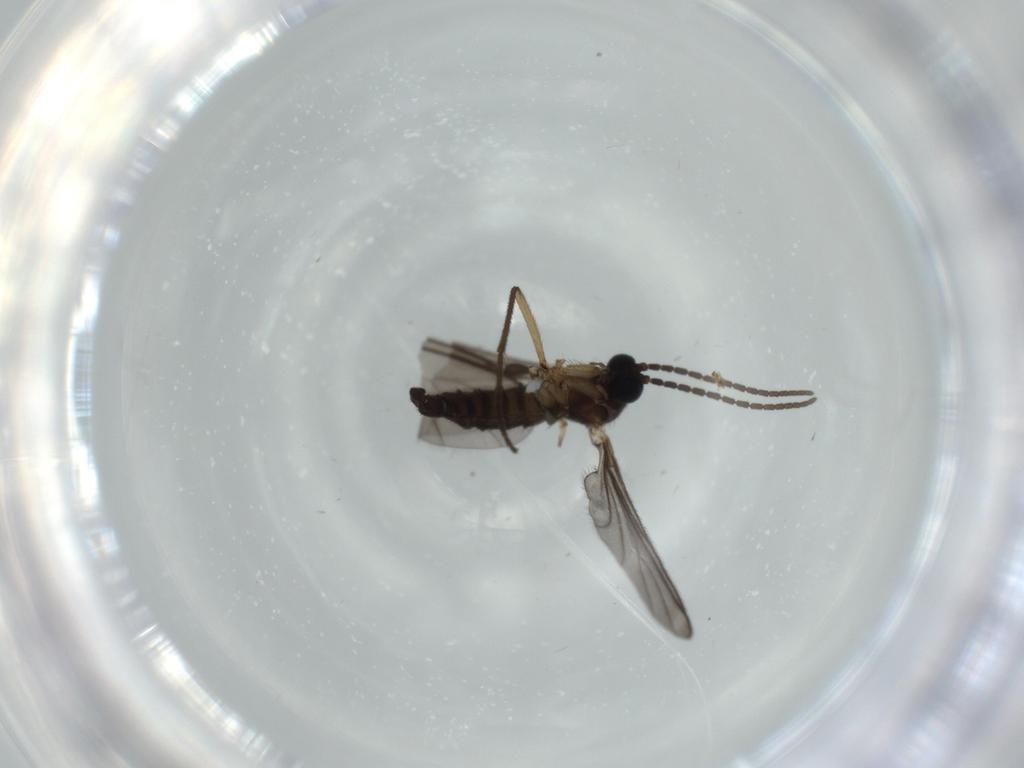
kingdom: Animalia
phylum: Arthropoda
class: Insecta
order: Diptera
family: Sciaridae
